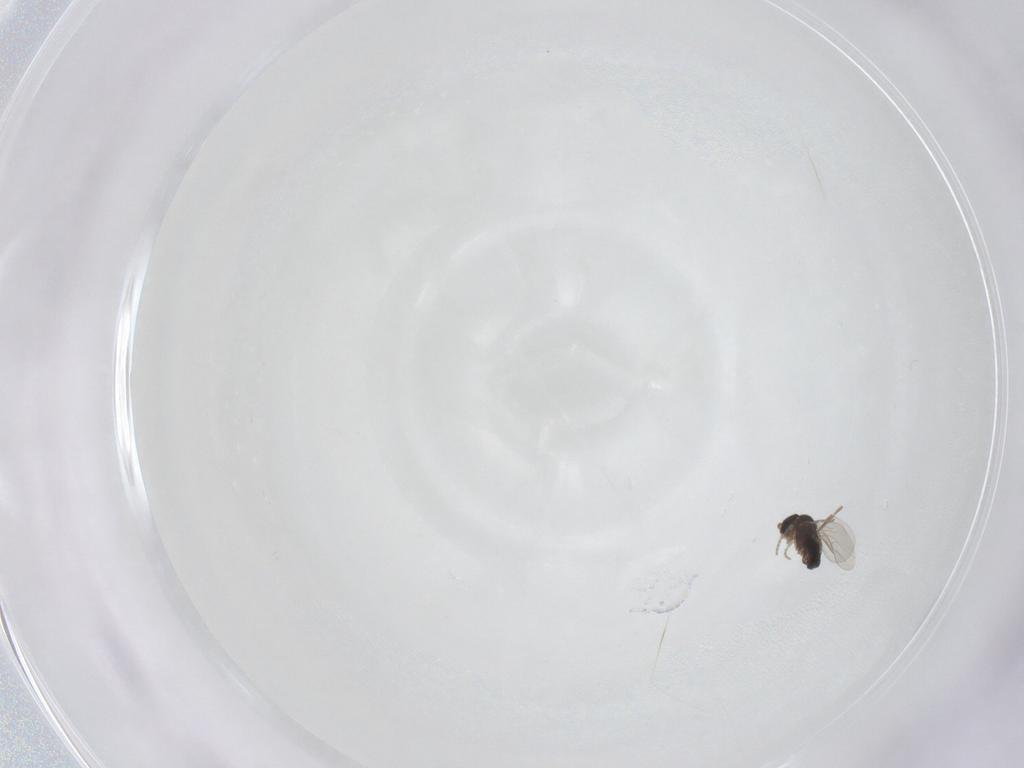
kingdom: Animalia
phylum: Arthropoda
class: Insecta
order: Diptera
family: Phoridae
